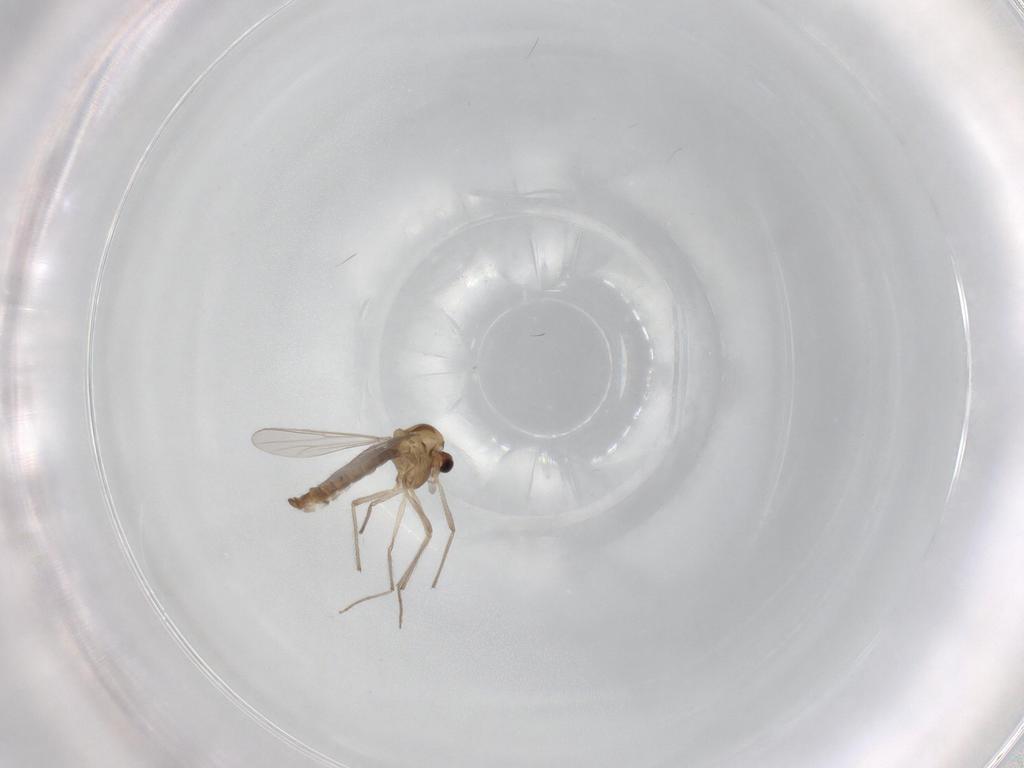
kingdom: Animalia
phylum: Arthropoda
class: Insecta
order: Diptera
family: Chironomidae
